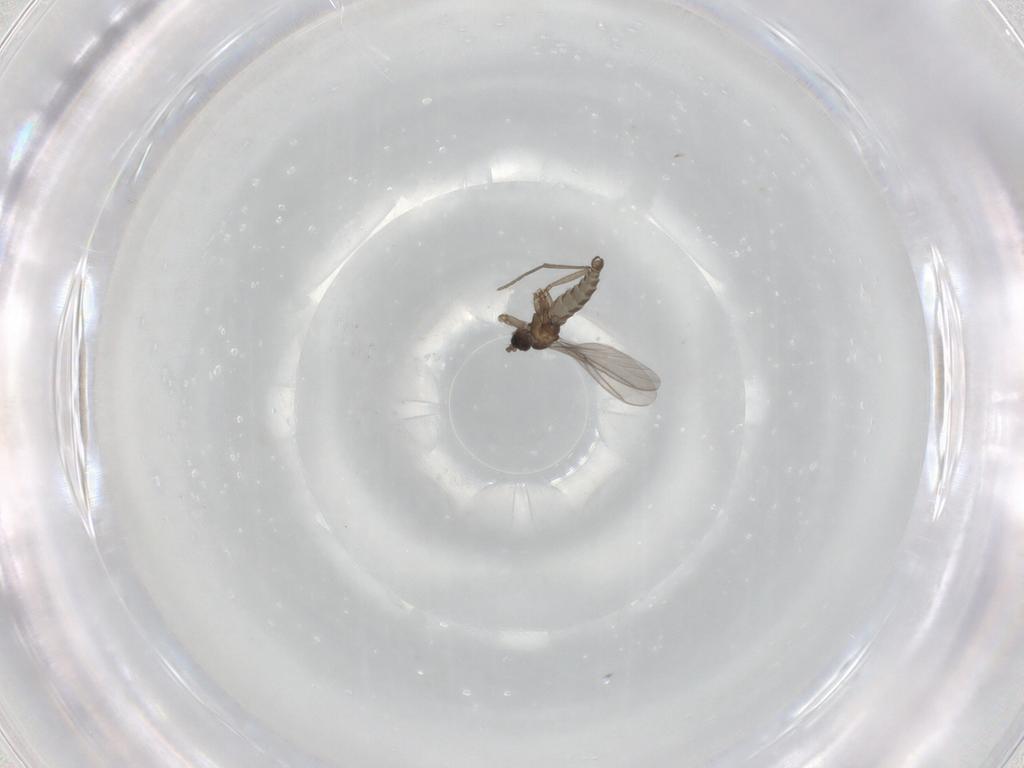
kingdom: Animalia
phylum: Arthropoda
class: Insecta
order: Diptera
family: Sciaridae
